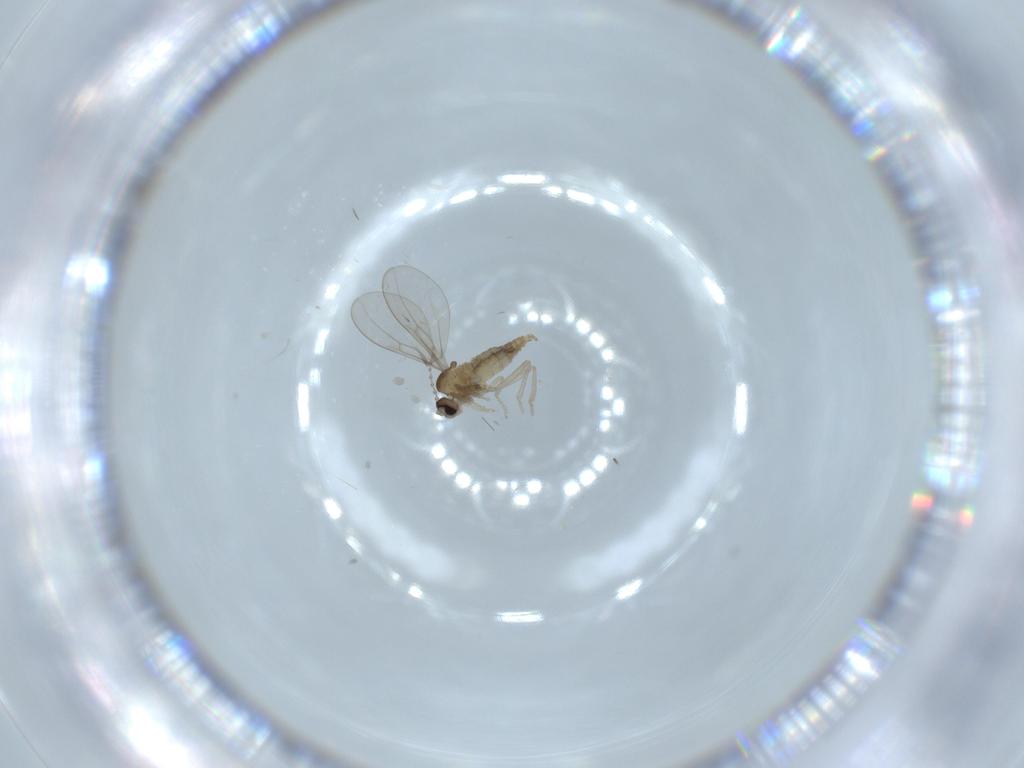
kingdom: Animalia
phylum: Arthropoda
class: Insecta
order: Diptera
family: Cecidomyiidae
